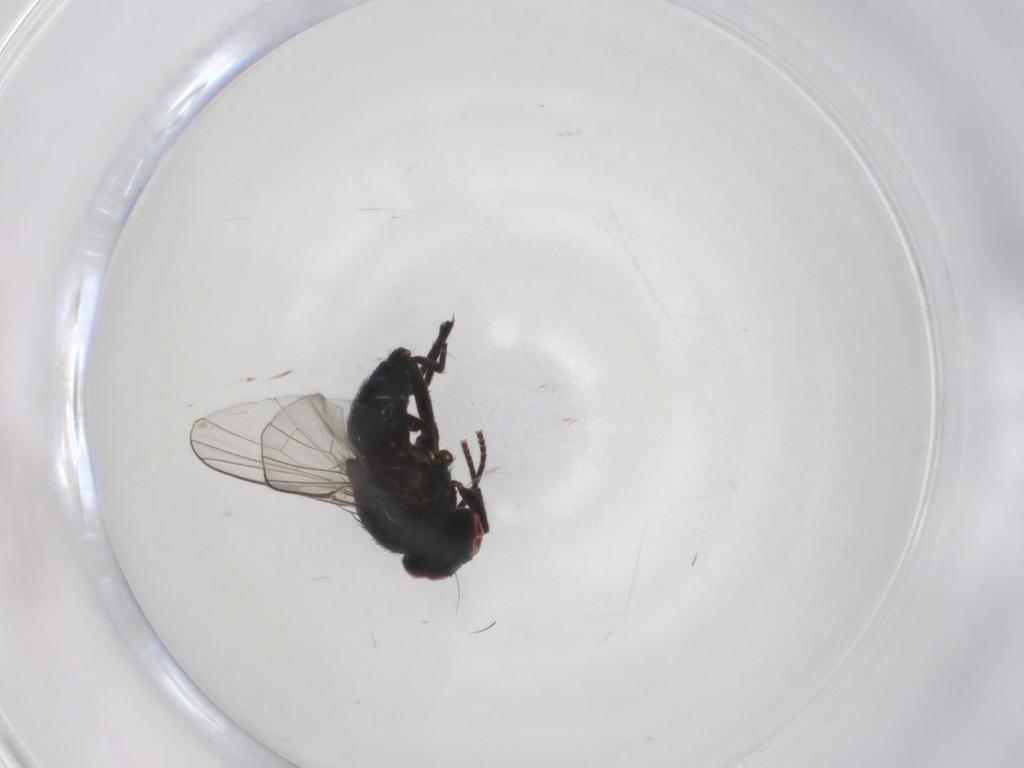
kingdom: Animalia
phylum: Arthropoda
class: Insecta
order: Diptera
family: Agromyzidae
